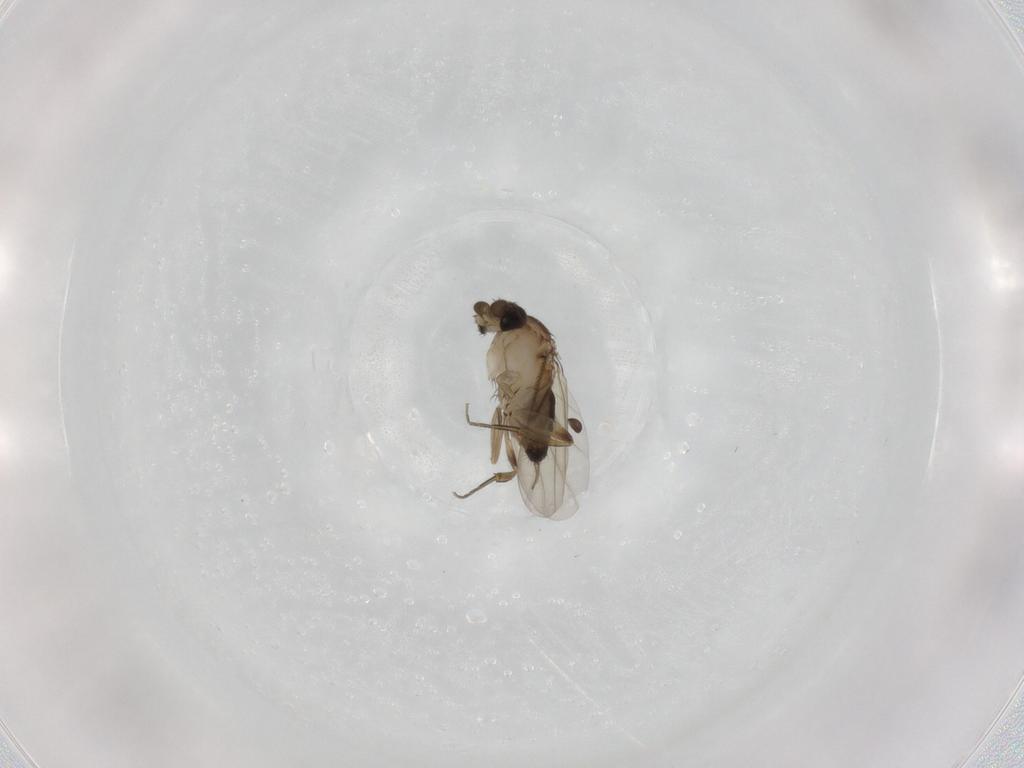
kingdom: Animalia
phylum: Arthropoda
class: Insecta
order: Diptera
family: Phoridae
